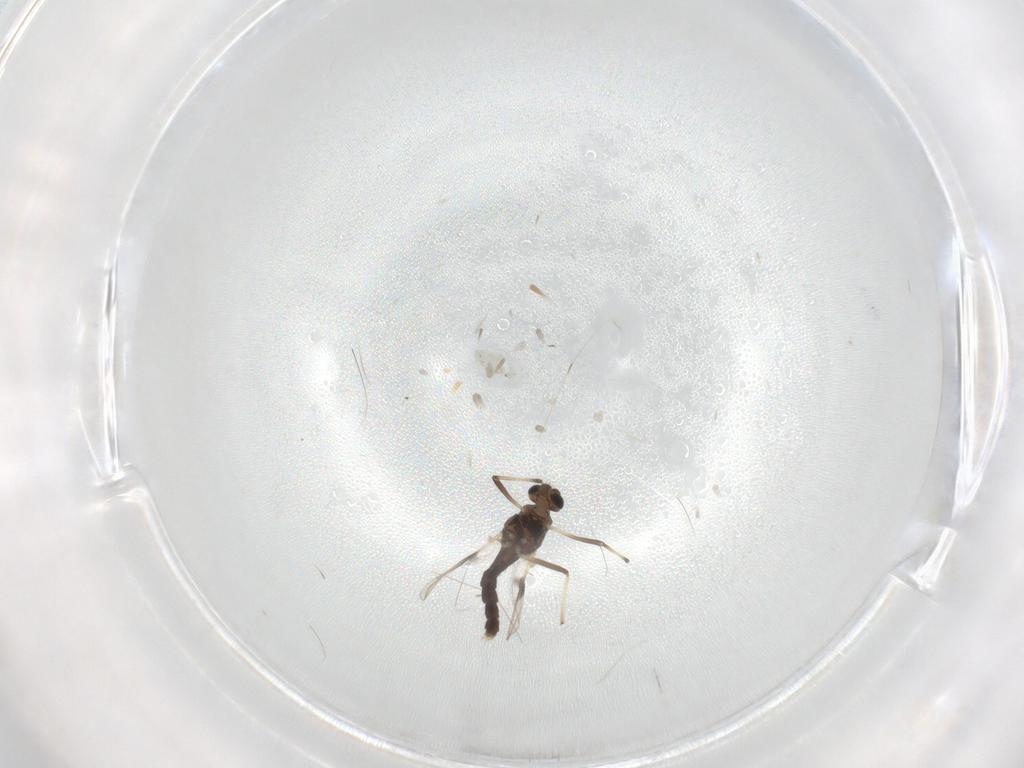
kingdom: Animalia
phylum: Arthropoda
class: Insecta
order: Diptera
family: Chironomidae
